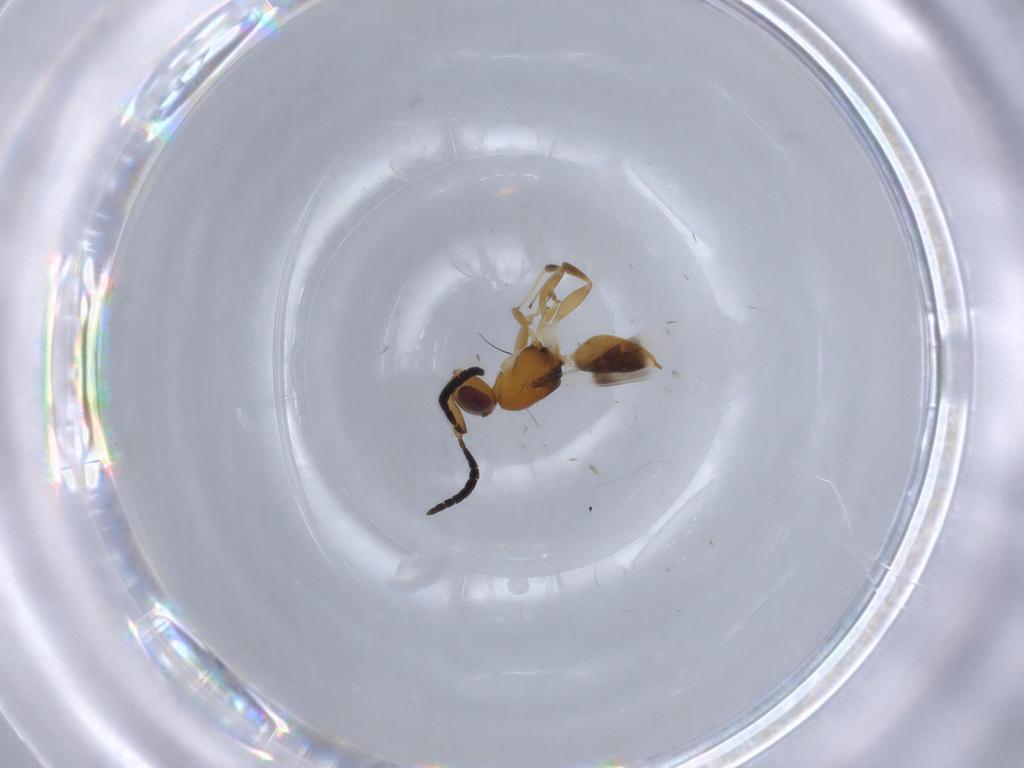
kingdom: Animalia
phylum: Arthropoda
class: Insecta
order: Hymenoptera
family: Megaspilidae
